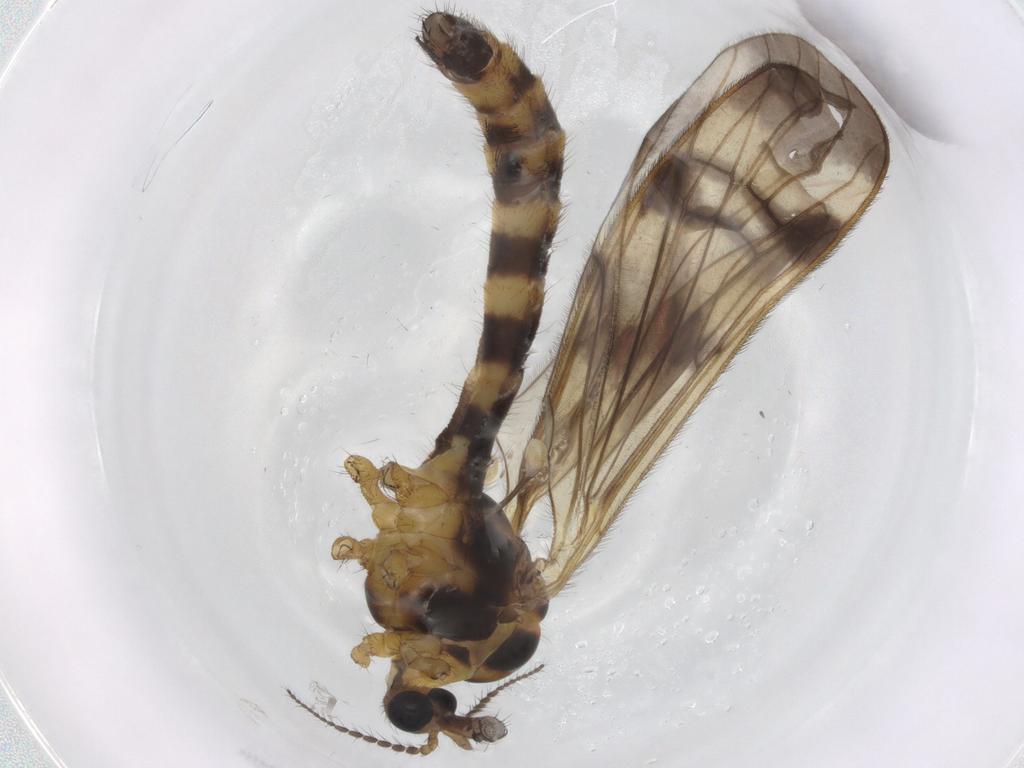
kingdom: Animalia
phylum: Arthropoda
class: Insecta
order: Diptera
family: Limoniidae
